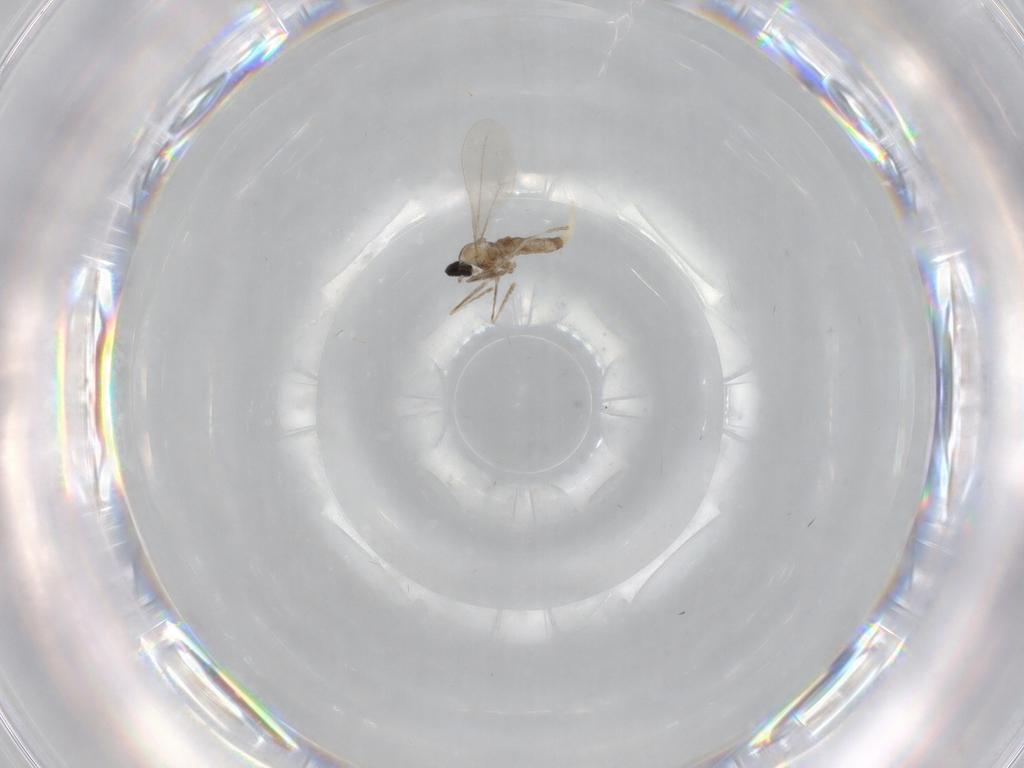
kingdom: Animalia
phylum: Arthropoda
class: Insecta
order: Diptera
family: Cecidomyiidae
